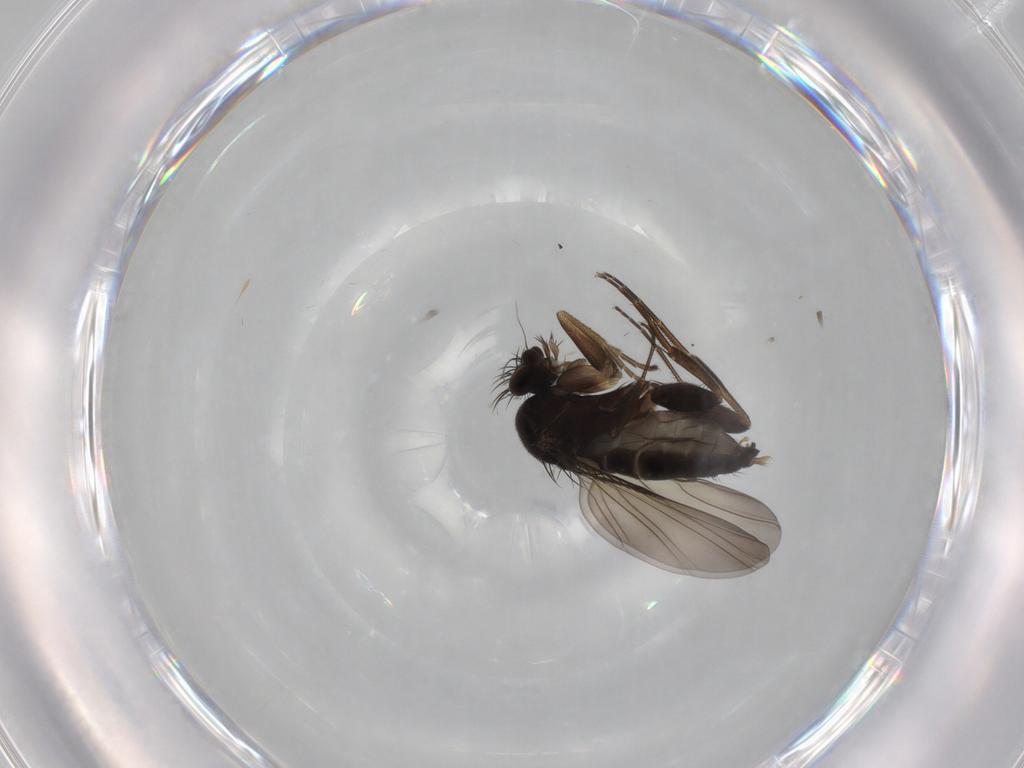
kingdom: Animalia
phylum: Arthropoda
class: Insecta
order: Diptera
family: Phoridae
